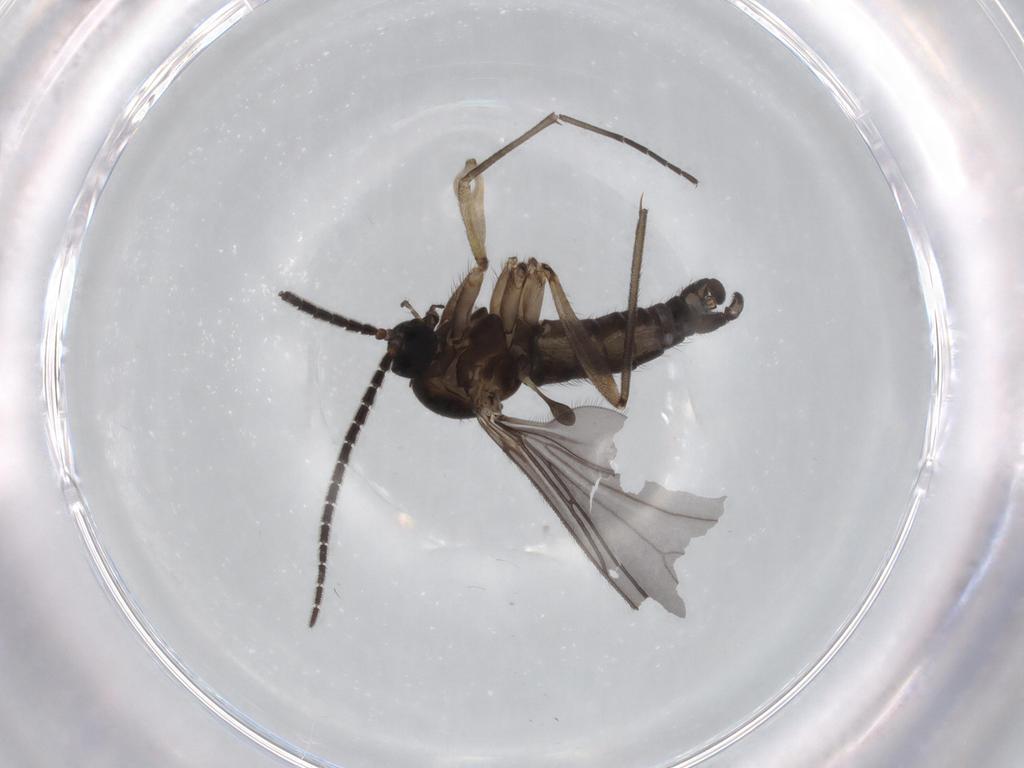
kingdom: Animalia
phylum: Arthropoda
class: Insecta
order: Diptera
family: Sciaridae
